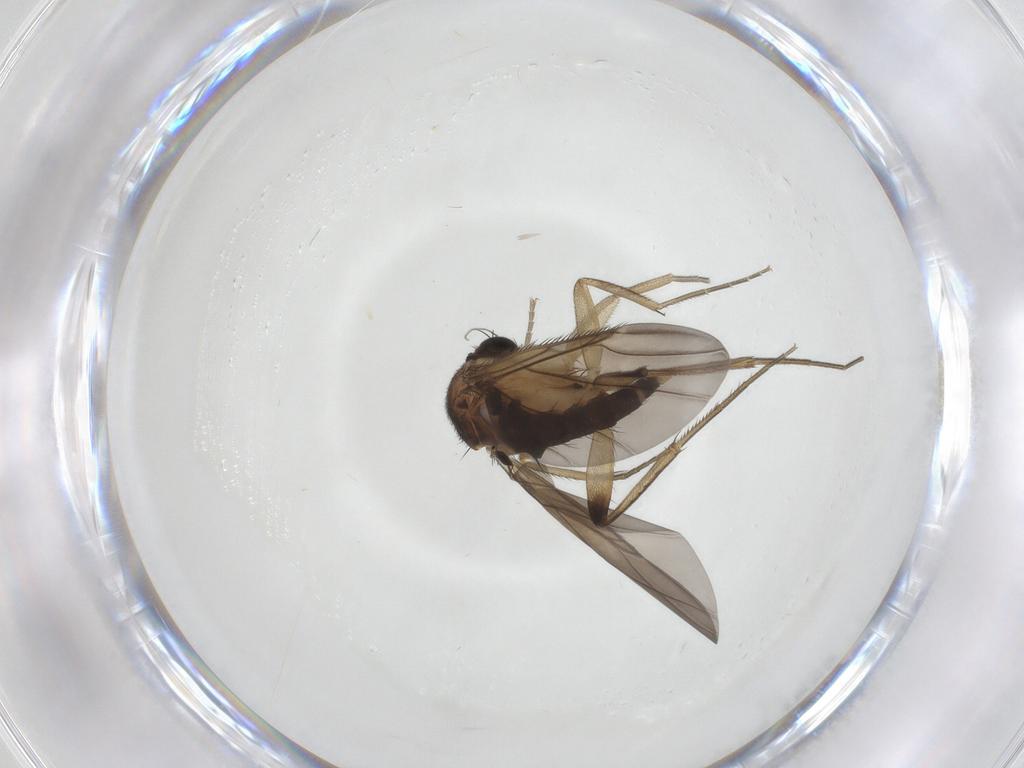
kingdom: Animalia
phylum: Arthropoda
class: Insecta
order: Diptera
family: Phoridae
